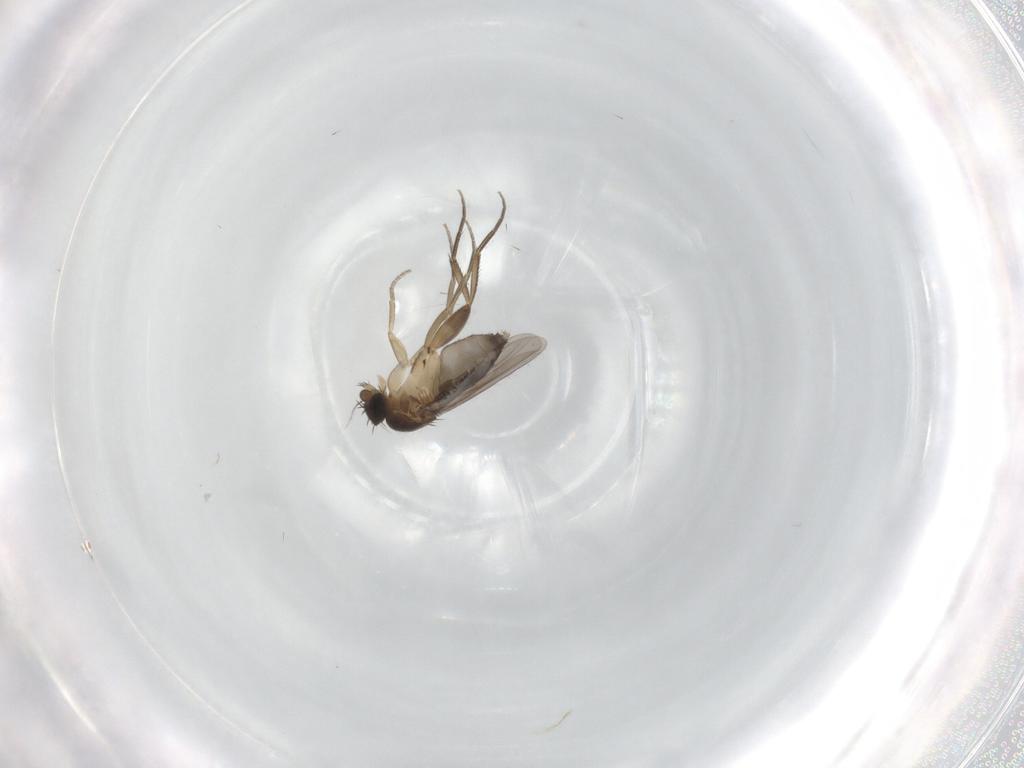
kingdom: Animalia
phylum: Arthropoda
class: Insecta
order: Diptera
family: Phoridae
